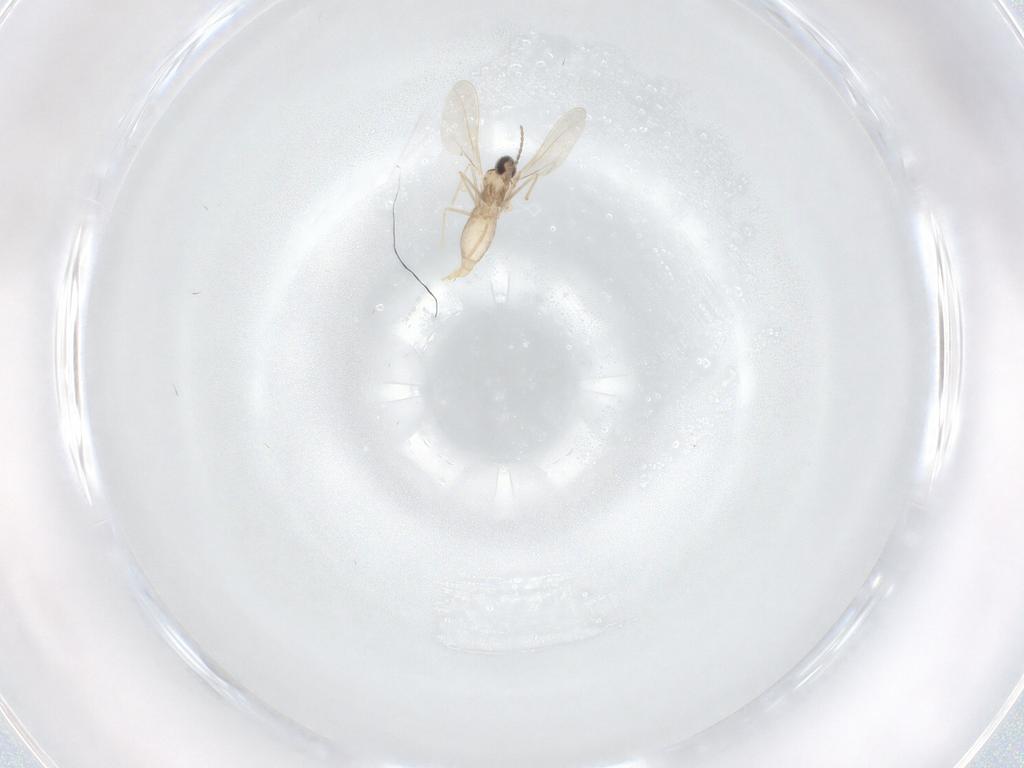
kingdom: Animalia
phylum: Arthropoda
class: Insecta
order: Diptera
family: Cecidomyiidae
